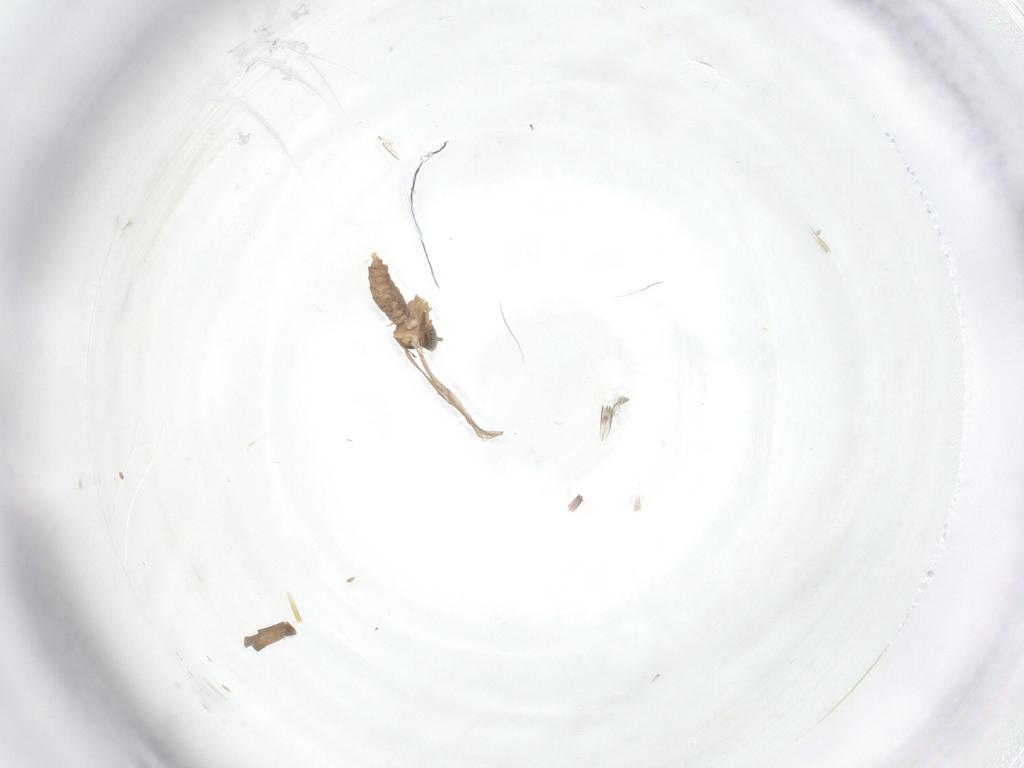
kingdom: Animalia
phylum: Arthropoda
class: Insecta
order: Diptera
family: Cecidomyiidae
